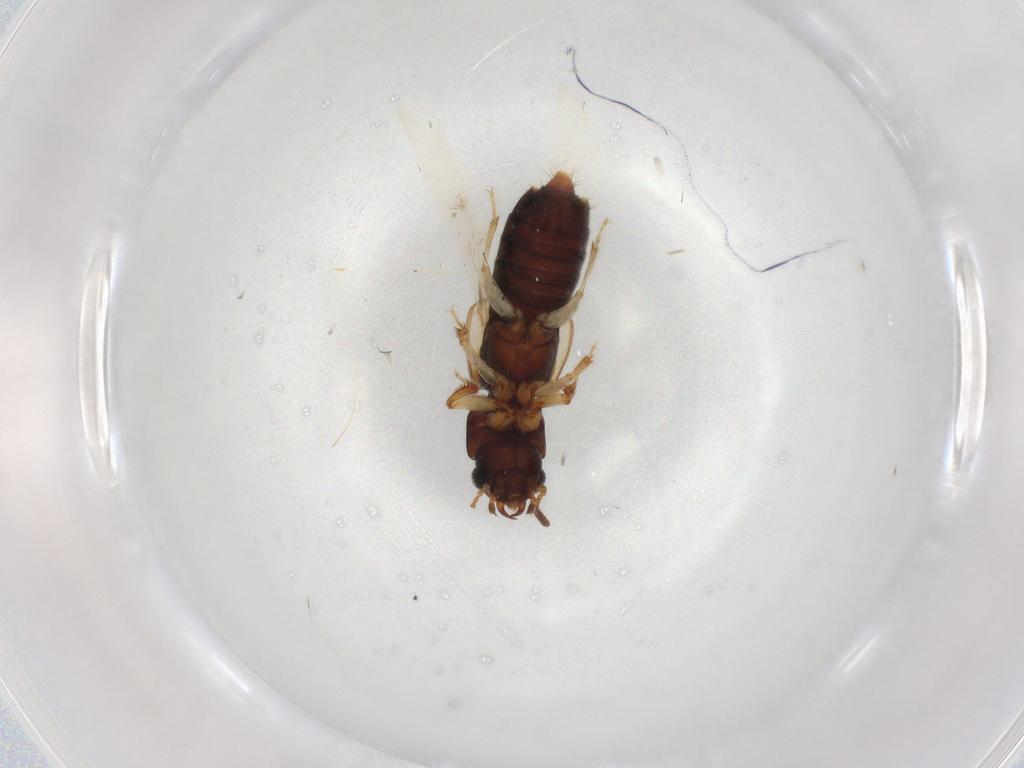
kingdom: Animalia
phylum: Arthropoda
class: Insecta
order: Coleoptera
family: Staphylinidae
